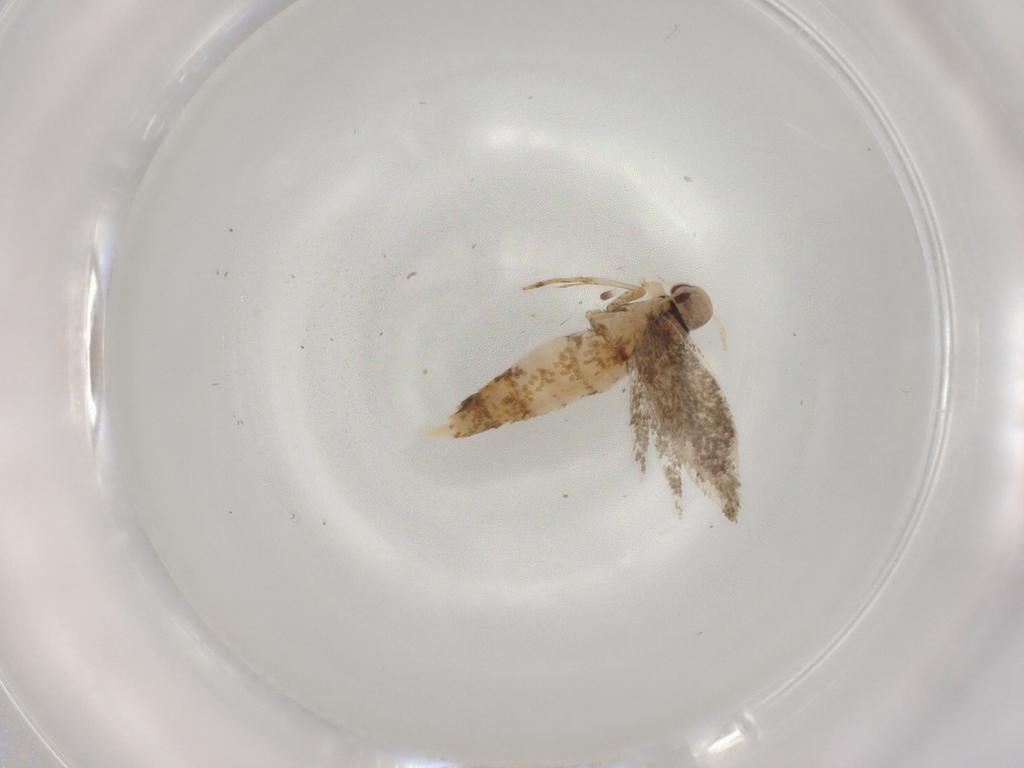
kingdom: Animalia
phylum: Arthropoda
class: Insecta
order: Lepidoptera
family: Cosmopterigidae
